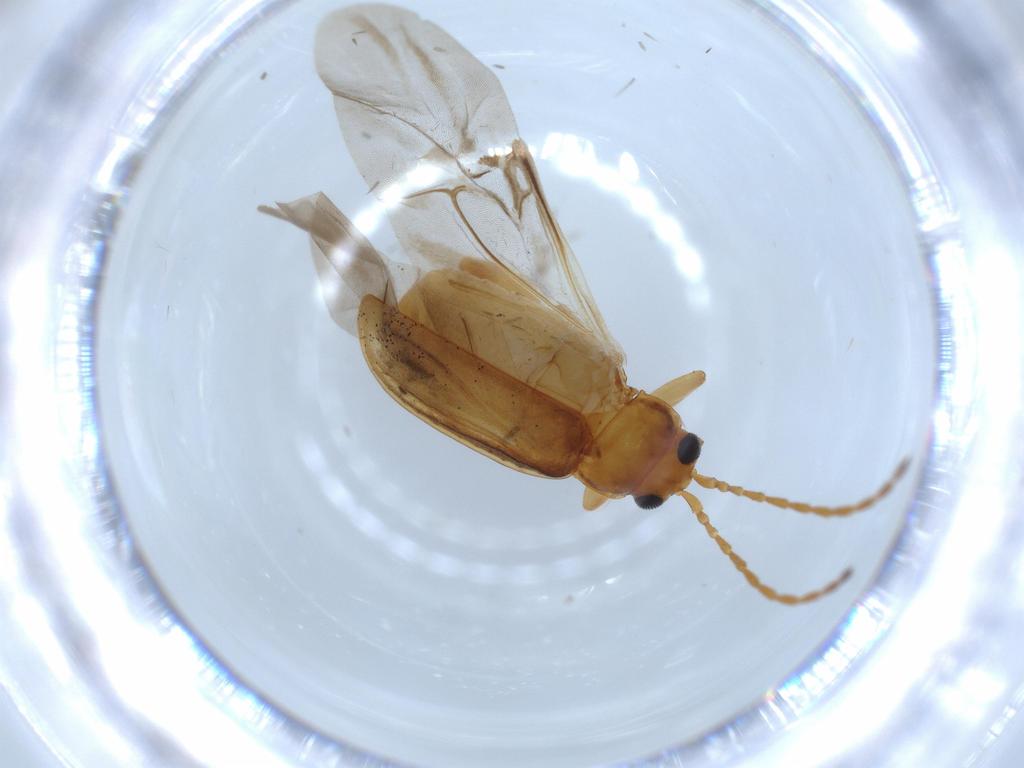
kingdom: Animalia
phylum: Arthropoda
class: Insecta
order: Coleoptera
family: Chrysomelidae
